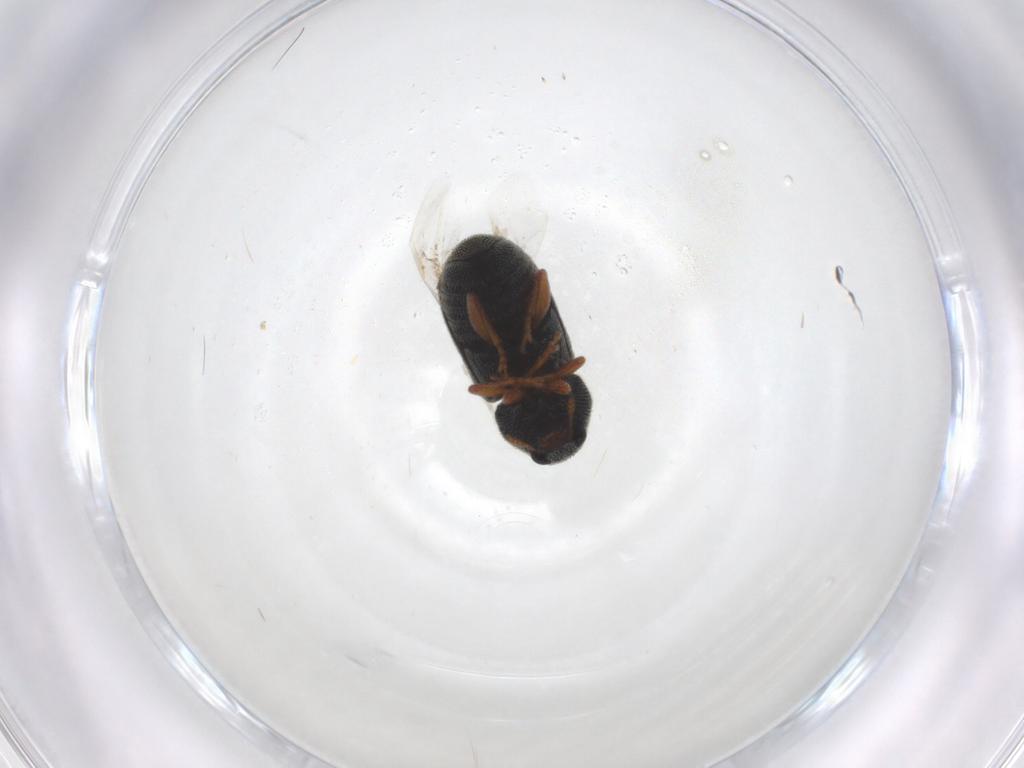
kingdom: Animalia
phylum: Arthropoda
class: Insecta
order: Coleoptera
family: Anthribidae
